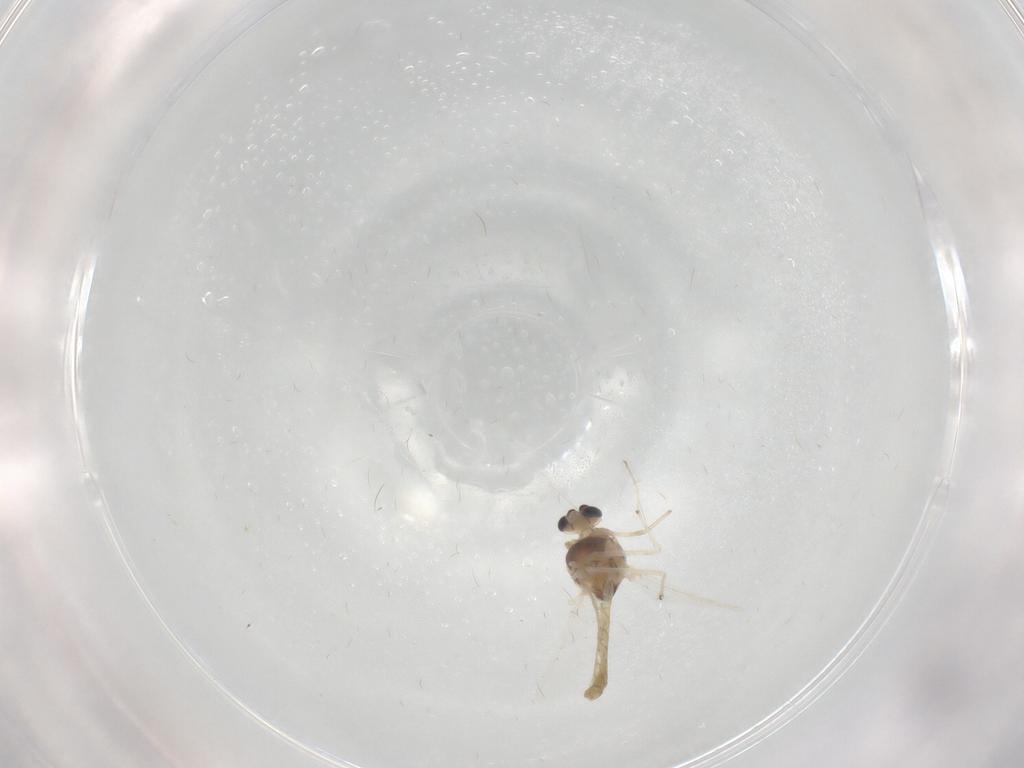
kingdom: Animalia
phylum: Arthropoda
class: Insecta
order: Diptera
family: Chironomidae
